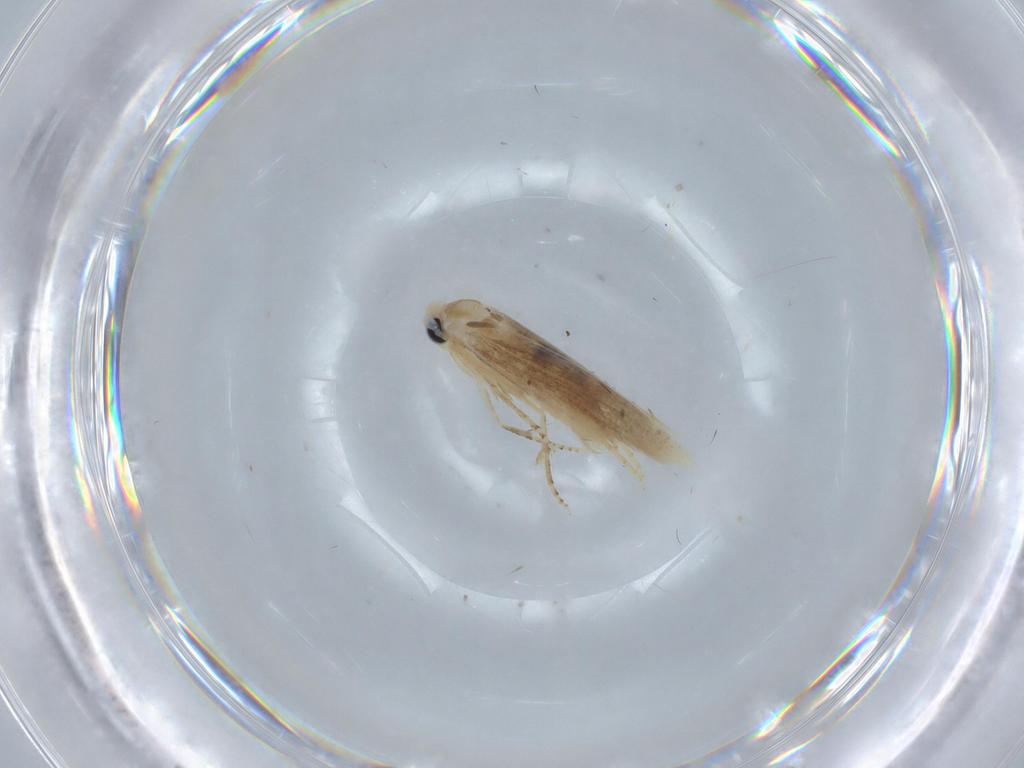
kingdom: Animalia
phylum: Arthropoda
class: Insecta
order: Lepidoptera
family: Bucculatricidae
